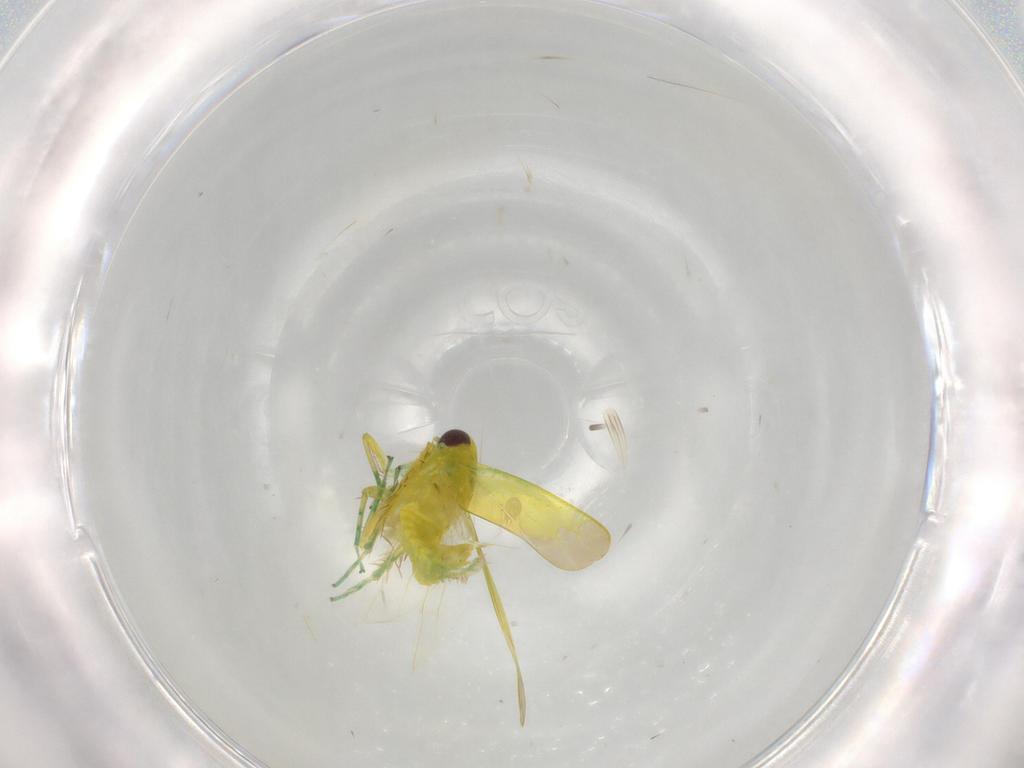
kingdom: Animalia
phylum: Arthropoda
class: Insecta
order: Hemiptera
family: Cicadellidae
